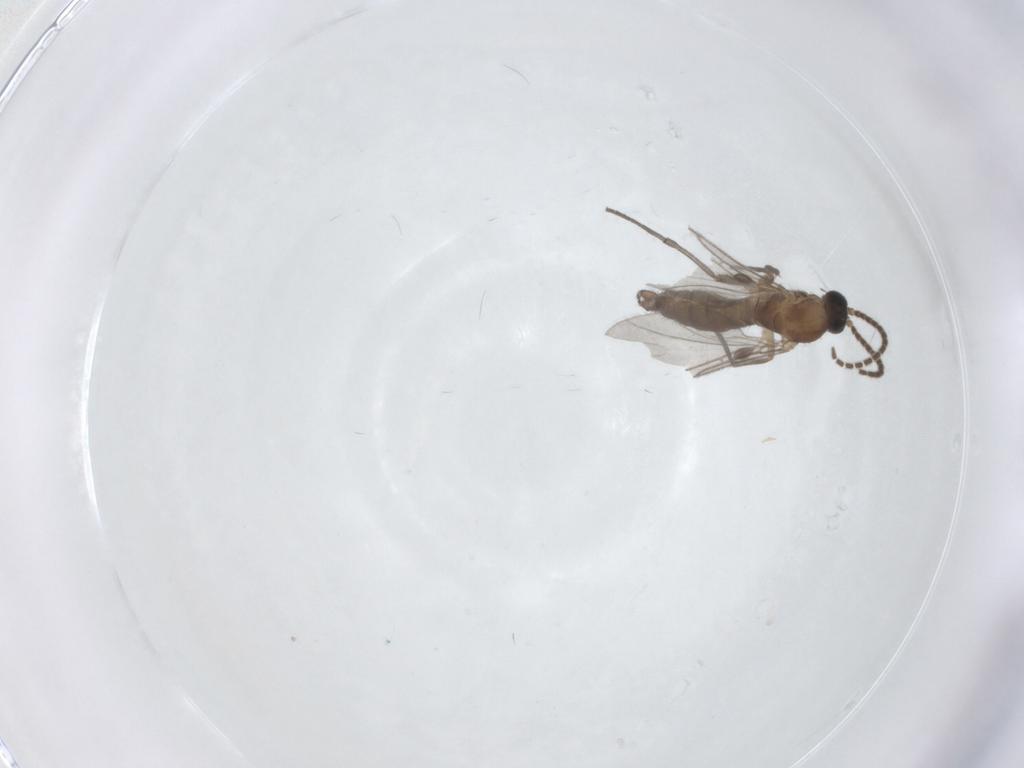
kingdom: Animalia
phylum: Arthropoda
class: Insecta
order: Diptera
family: Sciaridae
